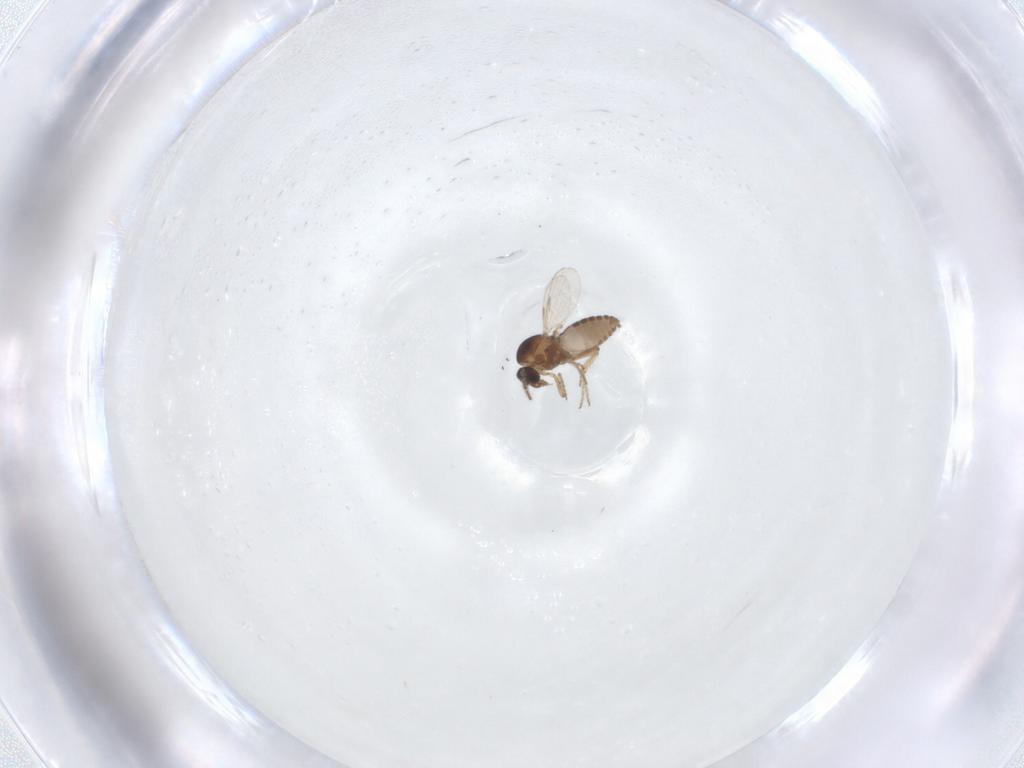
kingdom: Animalia
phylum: Arthropoda
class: Insecta
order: Diptera
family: Ceratopogonidae
